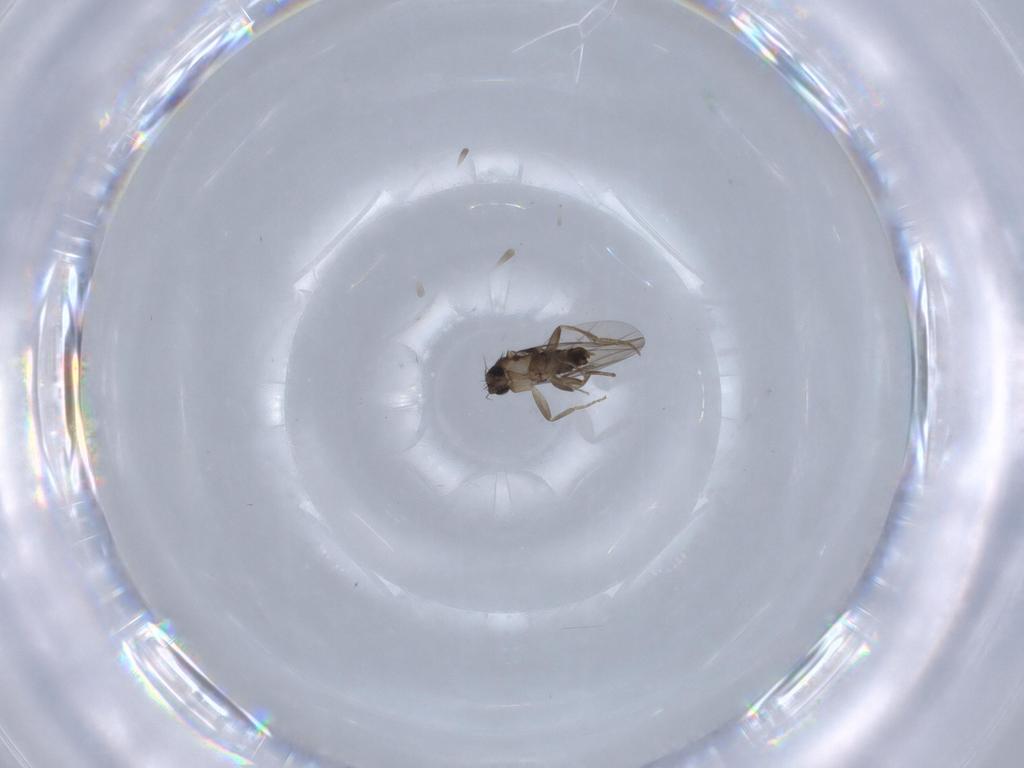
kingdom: Animalia
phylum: Arthropoda
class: Insecta
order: Diptera
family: Phoridae
